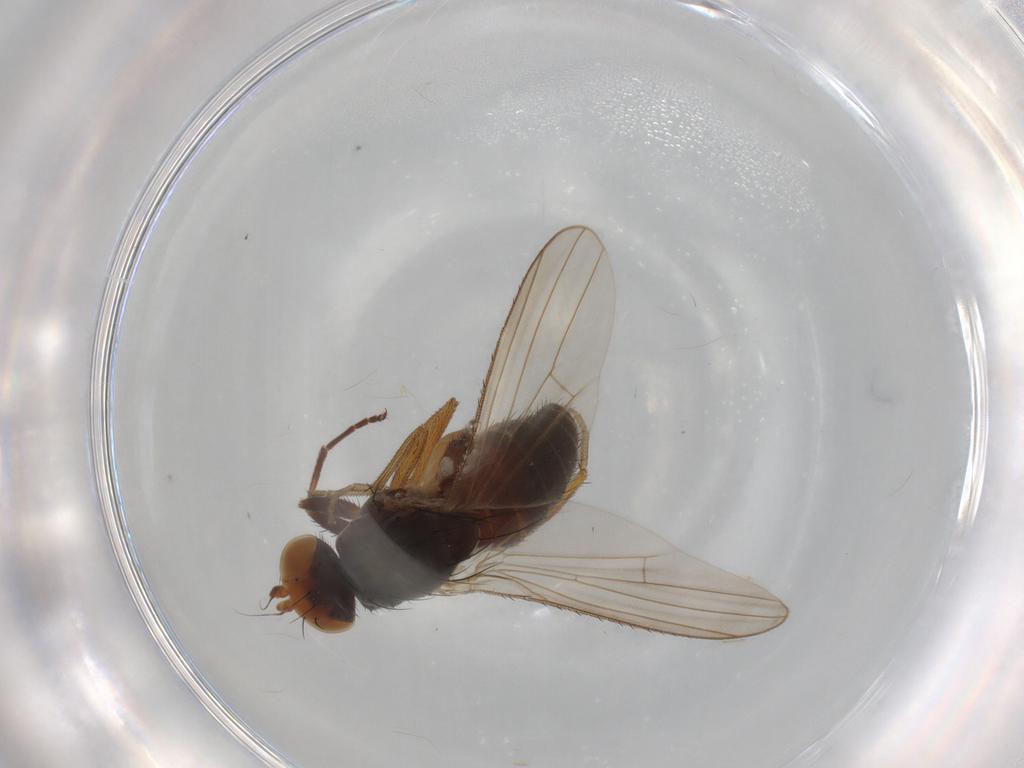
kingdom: Animalia
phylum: Arthropoda
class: Insecta
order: Diptera
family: Heleomyzidae
